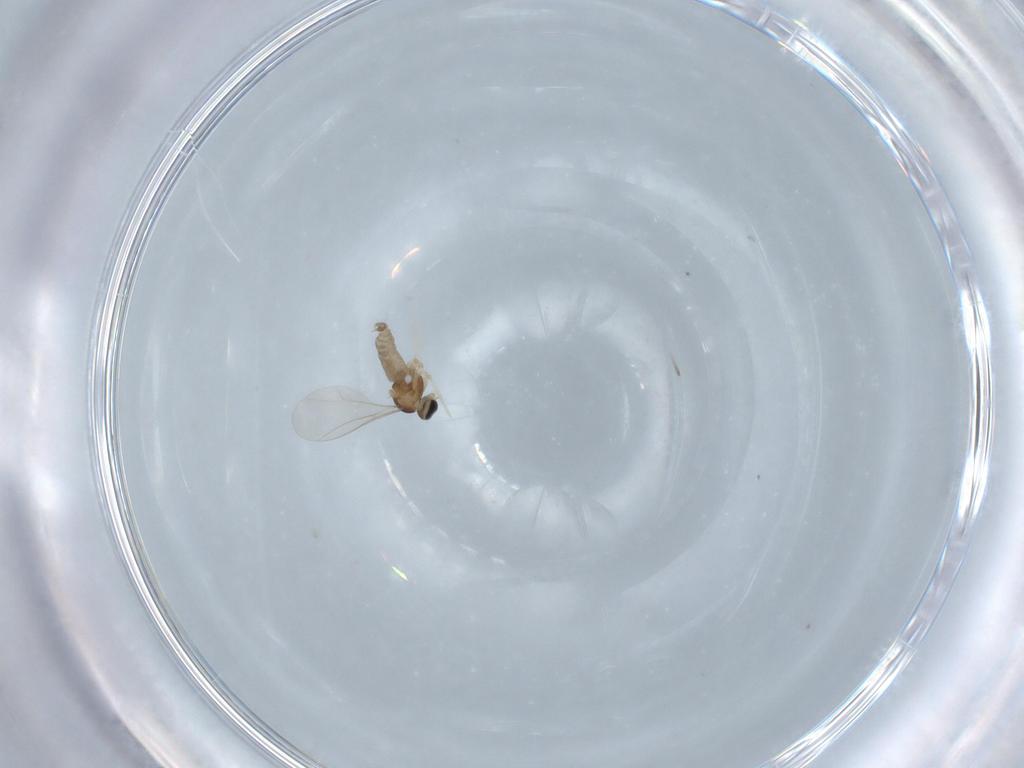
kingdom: Animalia
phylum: Arthropoda
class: Insecta
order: Diptera
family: Cecidomyiidae
